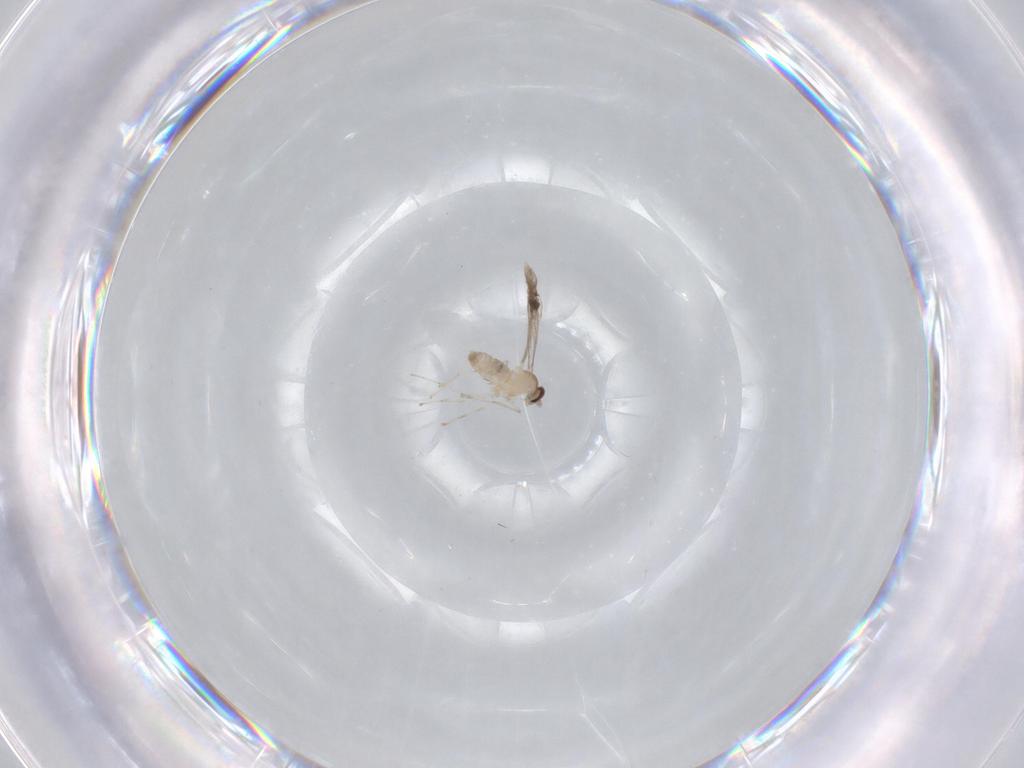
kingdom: Animalia
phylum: Arthropoda
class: Insecta
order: Diptera
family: Cecidomyiidae
